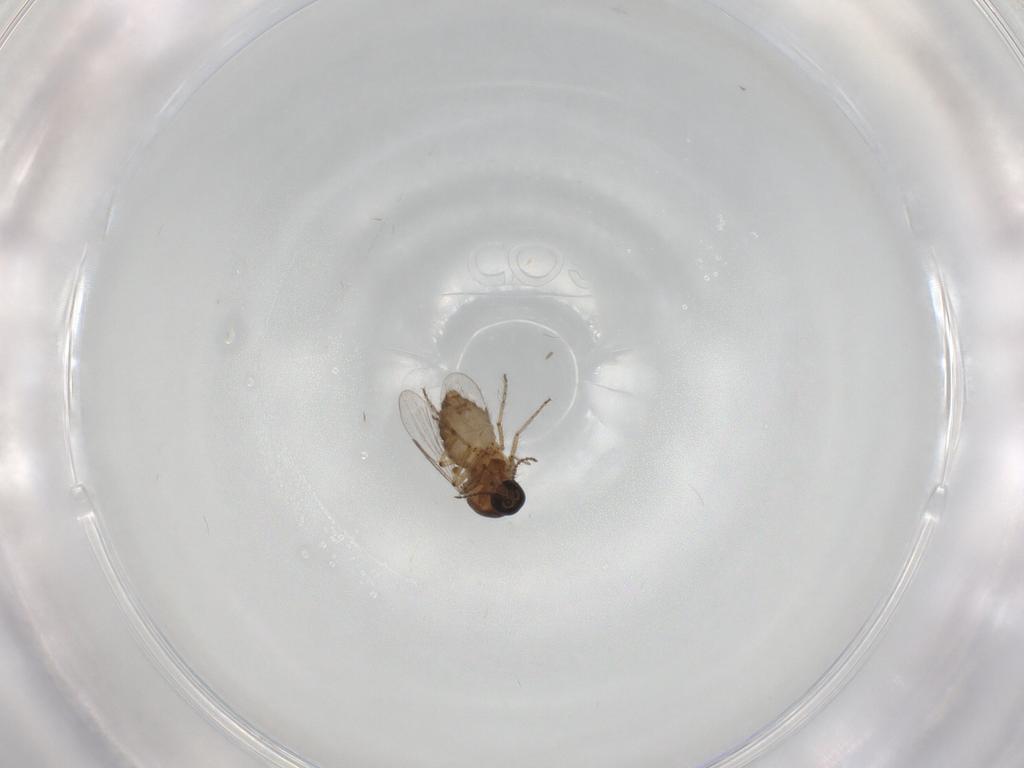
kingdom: Animalia
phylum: Arthropoda
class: Insecta
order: Diptera
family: Ceratopogonidae
